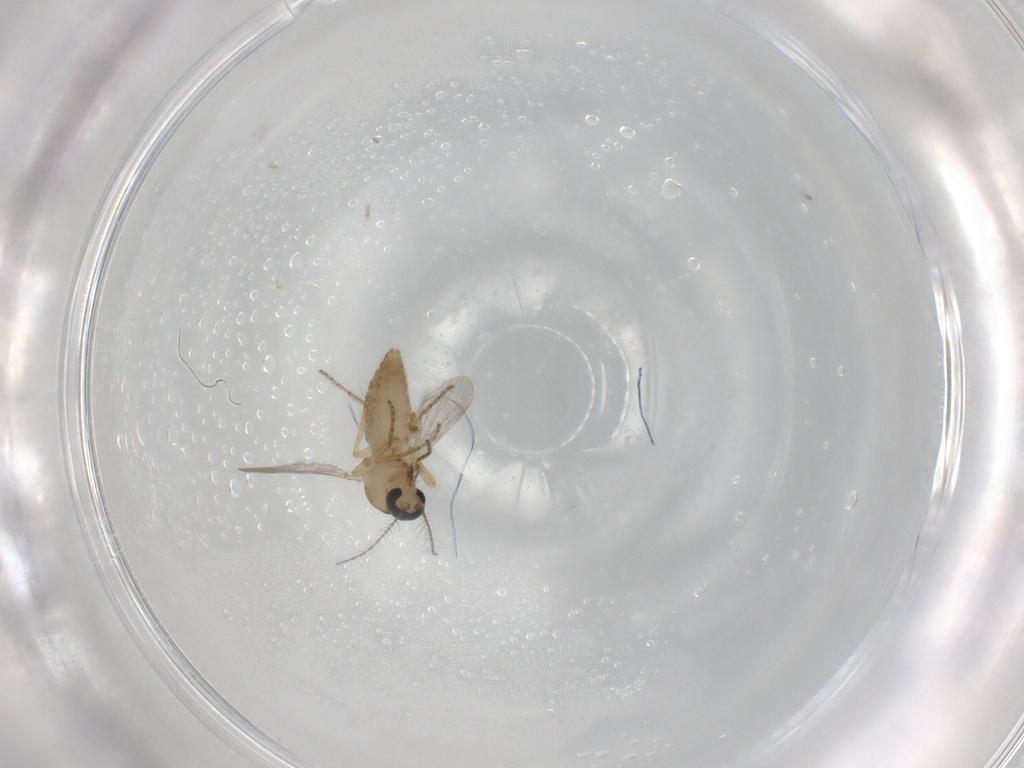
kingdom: Animalia
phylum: Arthropoda
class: Insecta
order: Diptera
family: Ceratopogonidae
